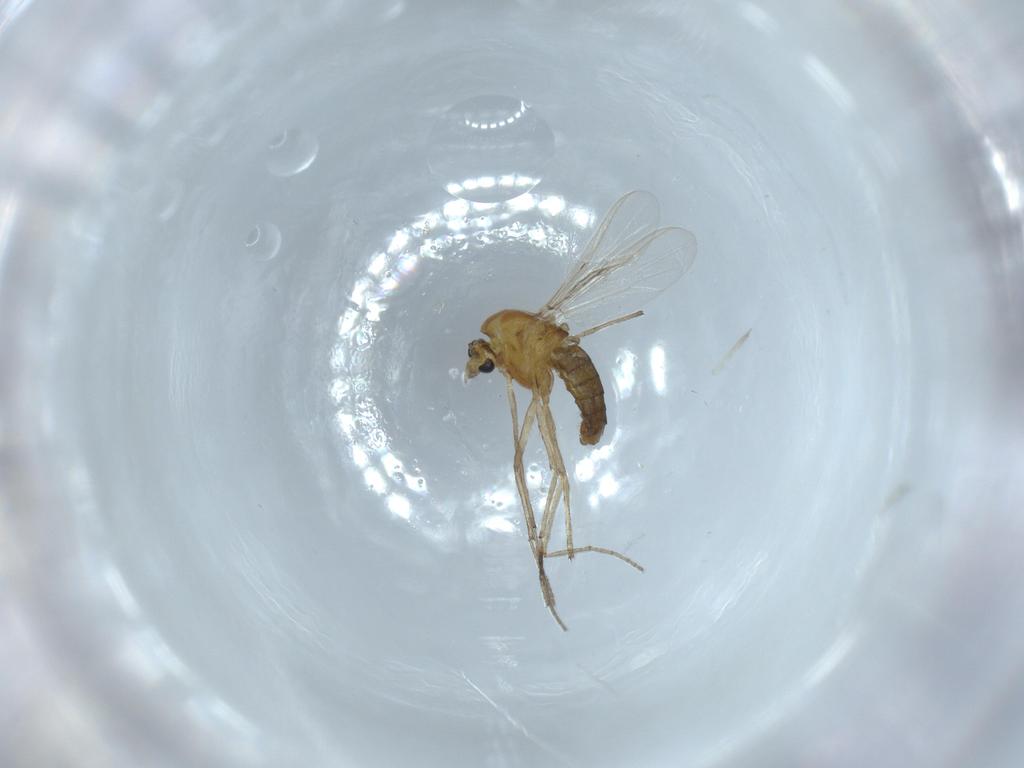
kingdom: Animalia
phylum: Arthropoda
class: Insecta
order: Diptera
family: Chironomidae
